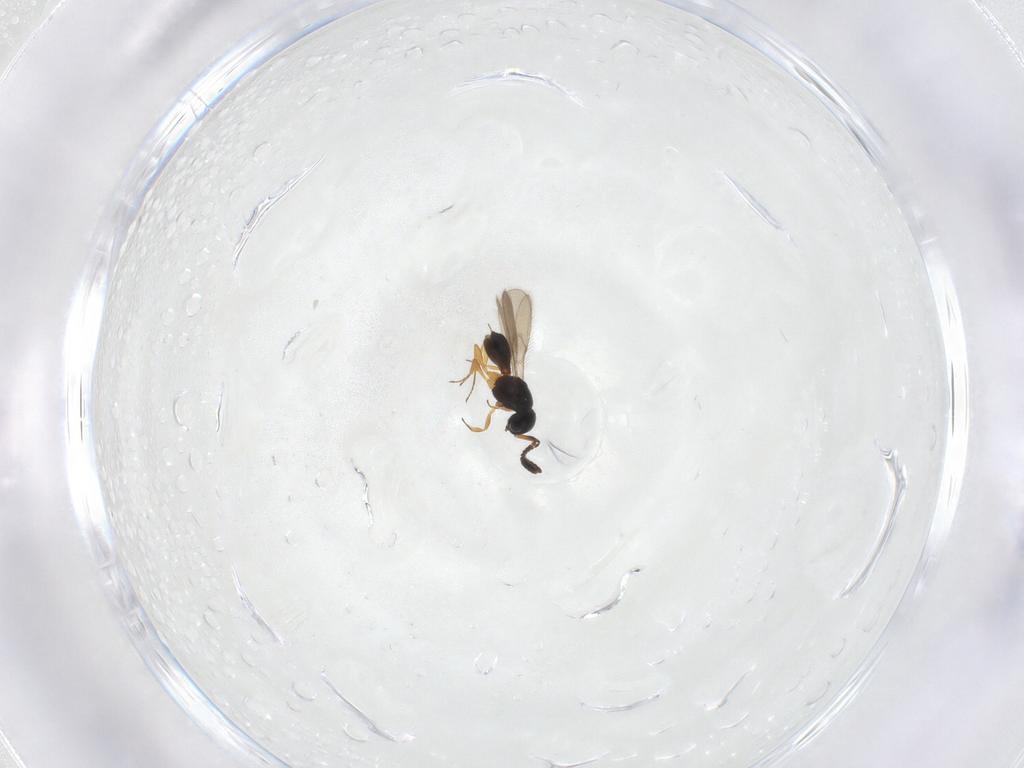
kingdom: Animalia
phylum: Arthropoda
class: Insecta
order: Hymenoptera
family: Scelionidae
